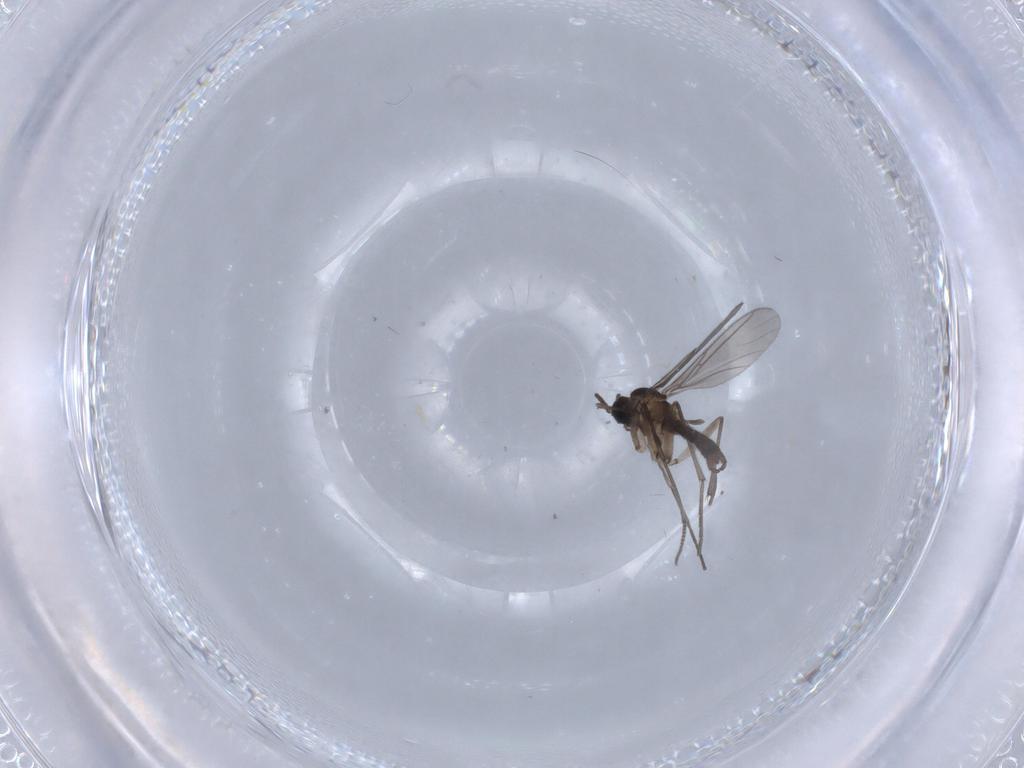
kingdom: Animalia
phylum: Arthropoda
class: Insecta
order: Diptera
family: Sciaridae
